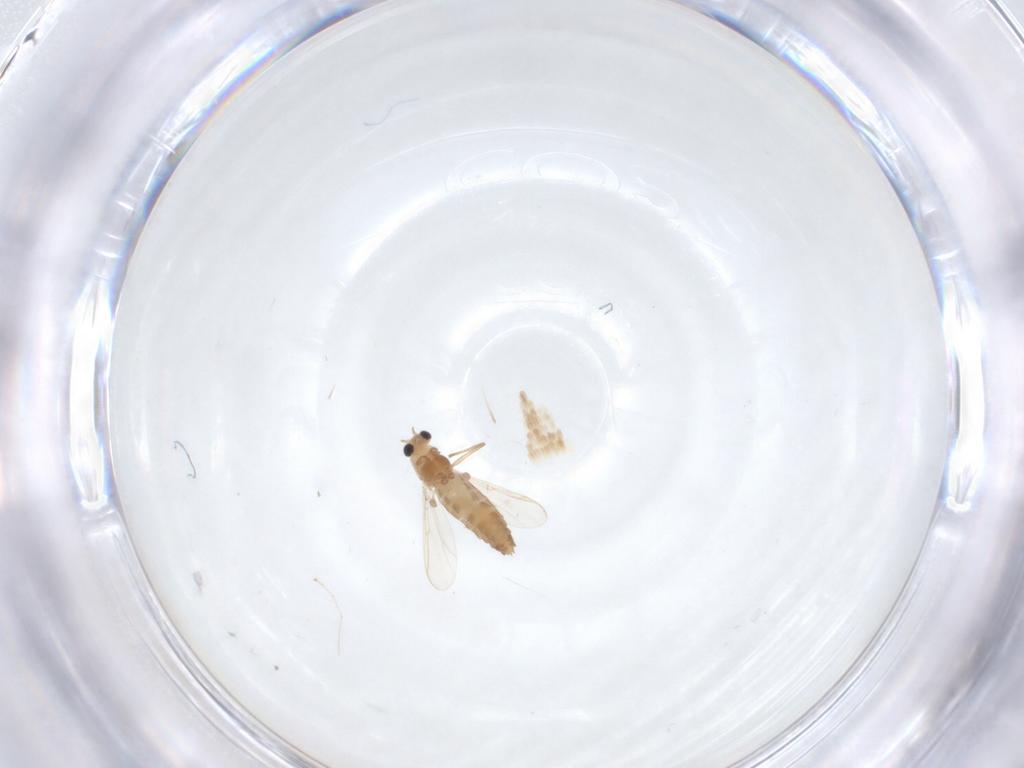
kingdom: Animalia
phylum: Arthropoda
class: Insecta
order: Diptera
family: Chironomidae
